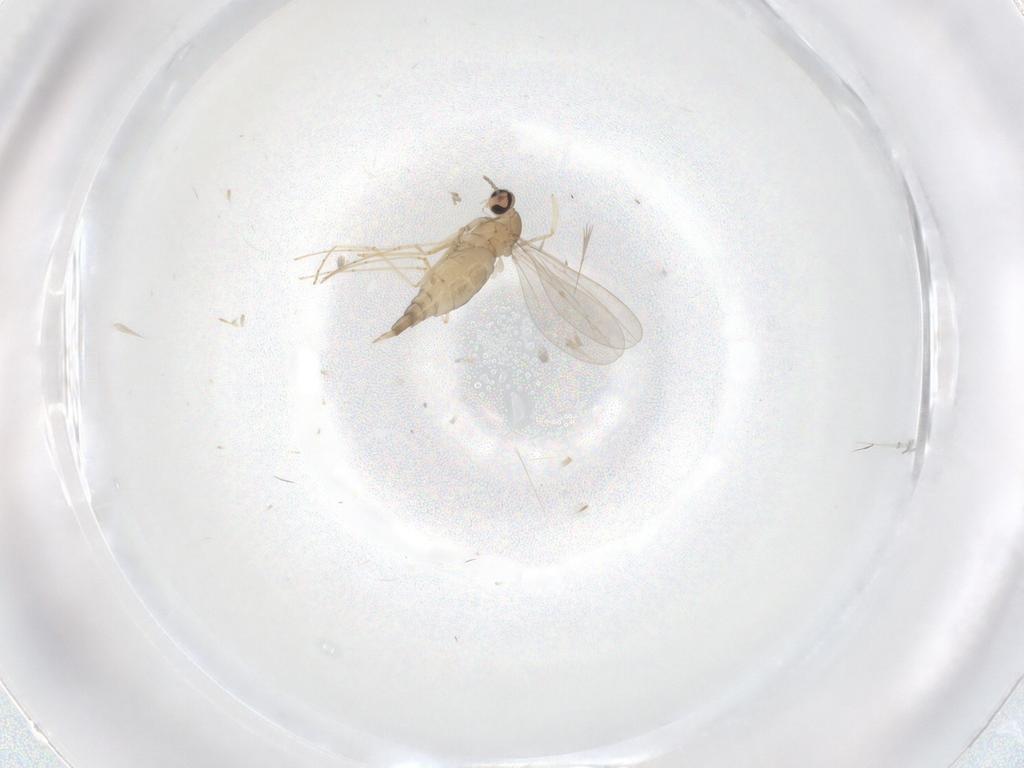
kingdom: Animalia
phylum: Arthropoda
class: Insecta
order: Diptera
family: Cecidomyiidae
